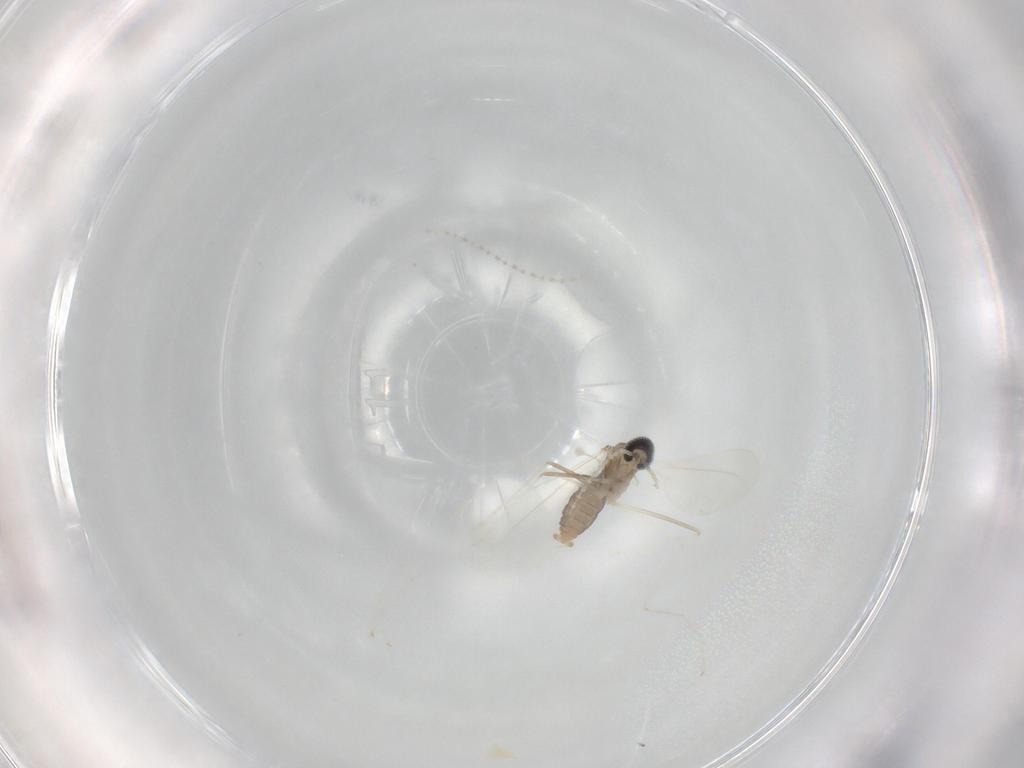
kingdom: Animalia
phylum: Arthropoda
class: Insecta
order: Diptera
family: Cecidomyiidae
